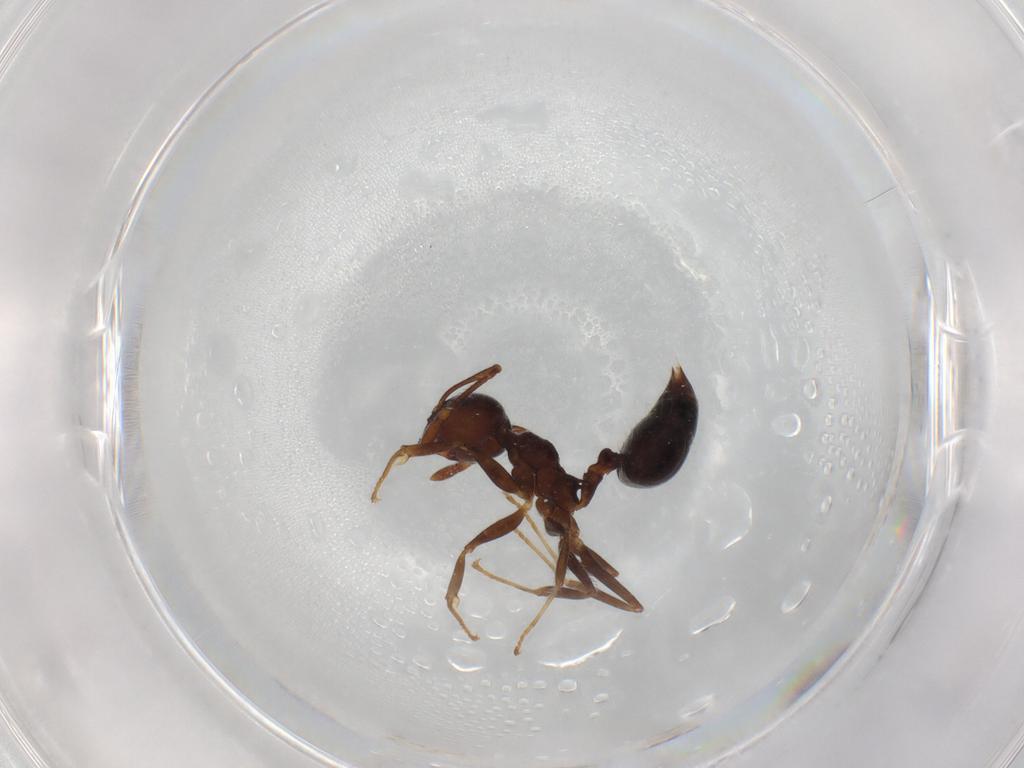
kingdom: Animalia
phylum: Arthropoda
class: Insecta
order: Hymenoptera
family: Formicidae
